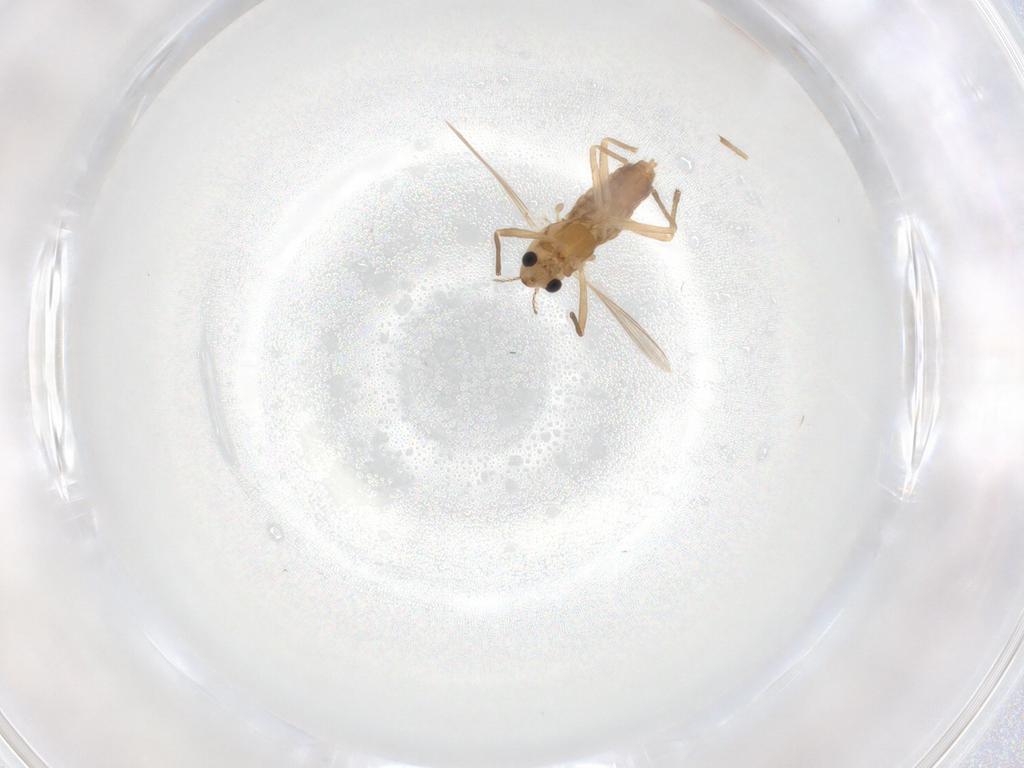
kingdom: Animalia
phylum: Arthropoda
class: Insecta
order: Diptera
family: Chironomidae
